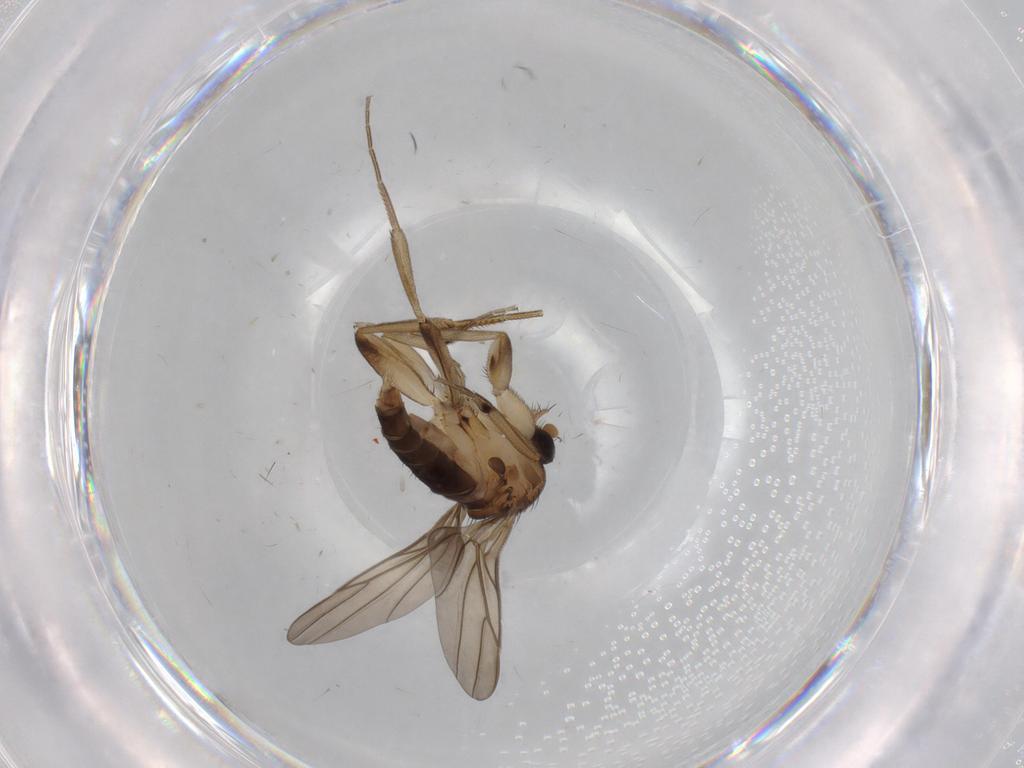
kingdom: Animalia
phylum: Arthropoda
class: Insecta
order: Diptera
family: Phoridae
